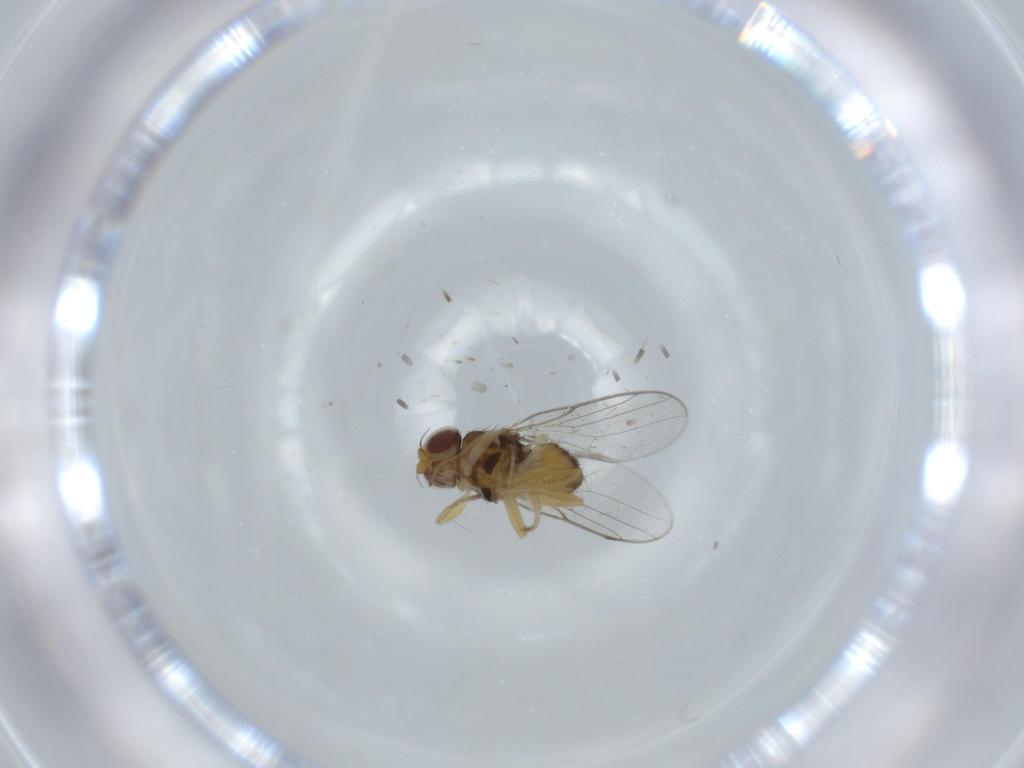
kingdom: Animalia
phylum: Arthropoda
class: Insecta
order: Diptera
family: Chloropidae
